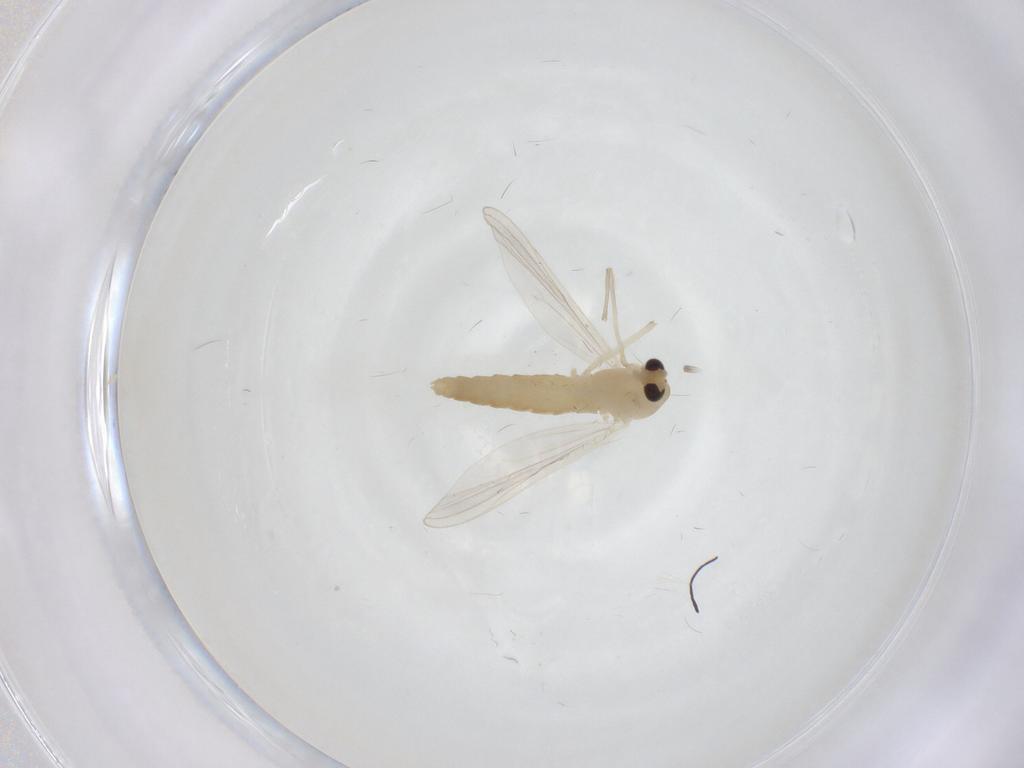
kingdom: Animalia
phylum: Arthropoda
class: Insecta
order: Diptera
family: Chironomidae
